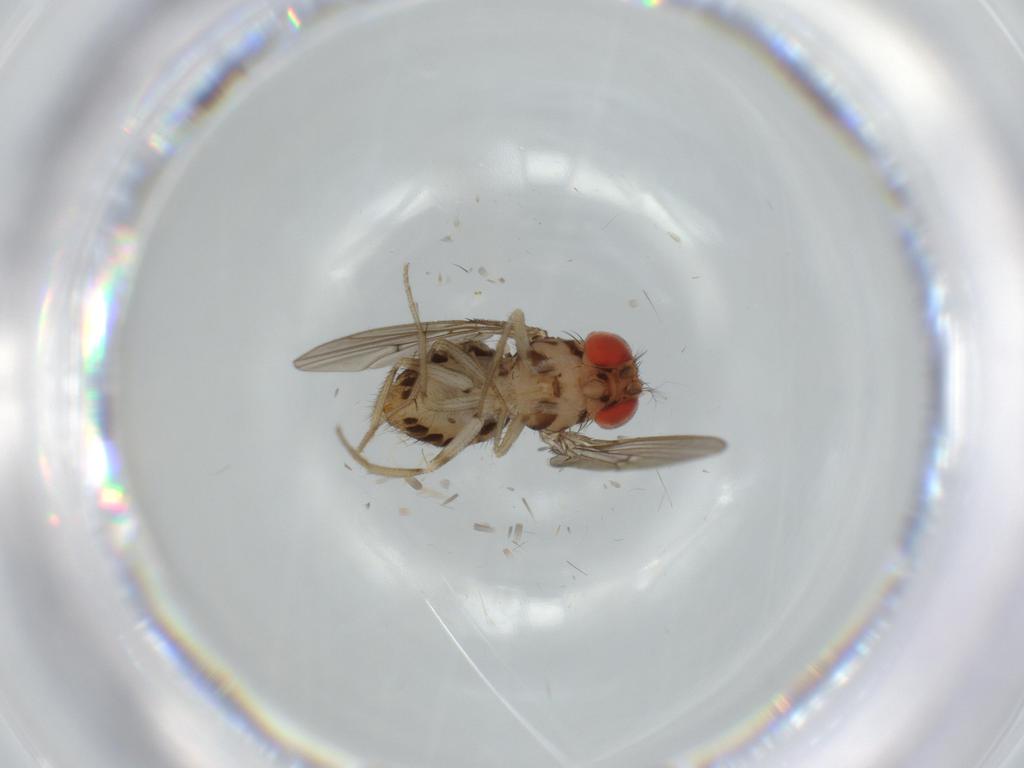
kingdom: Animalia
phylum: Arthropoda
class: Insecta
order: Diptera
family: Drosophilidae
